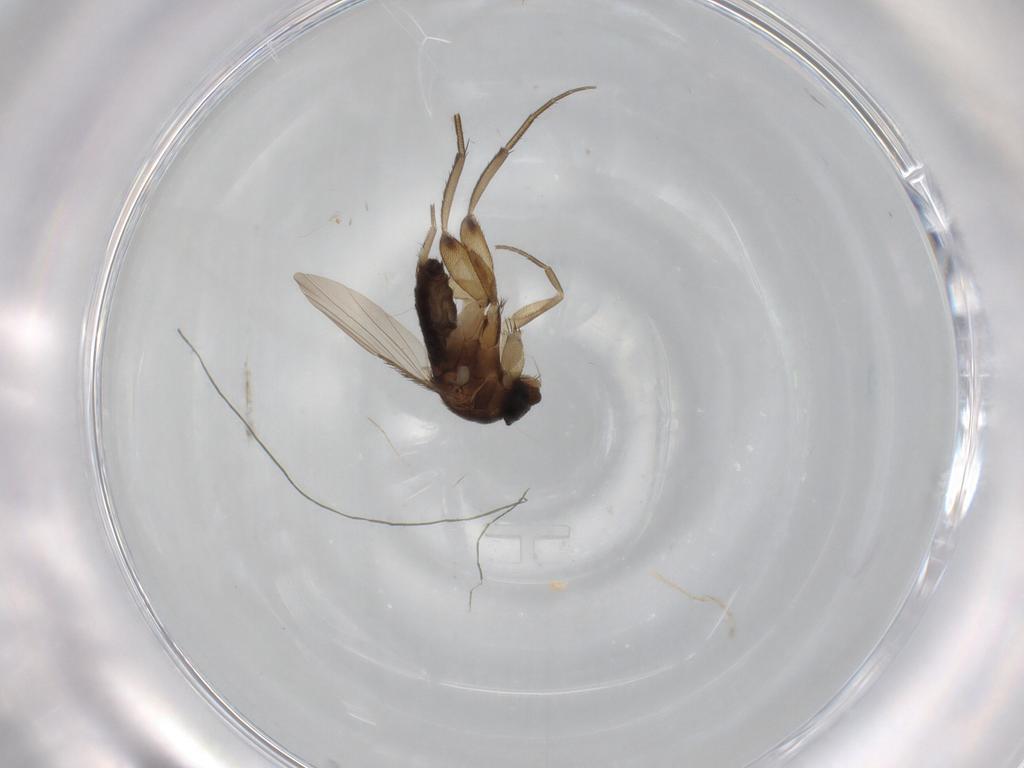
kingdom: Animalia
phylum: Arthropoda
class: Insecta
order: Diptera
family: Phoridae
